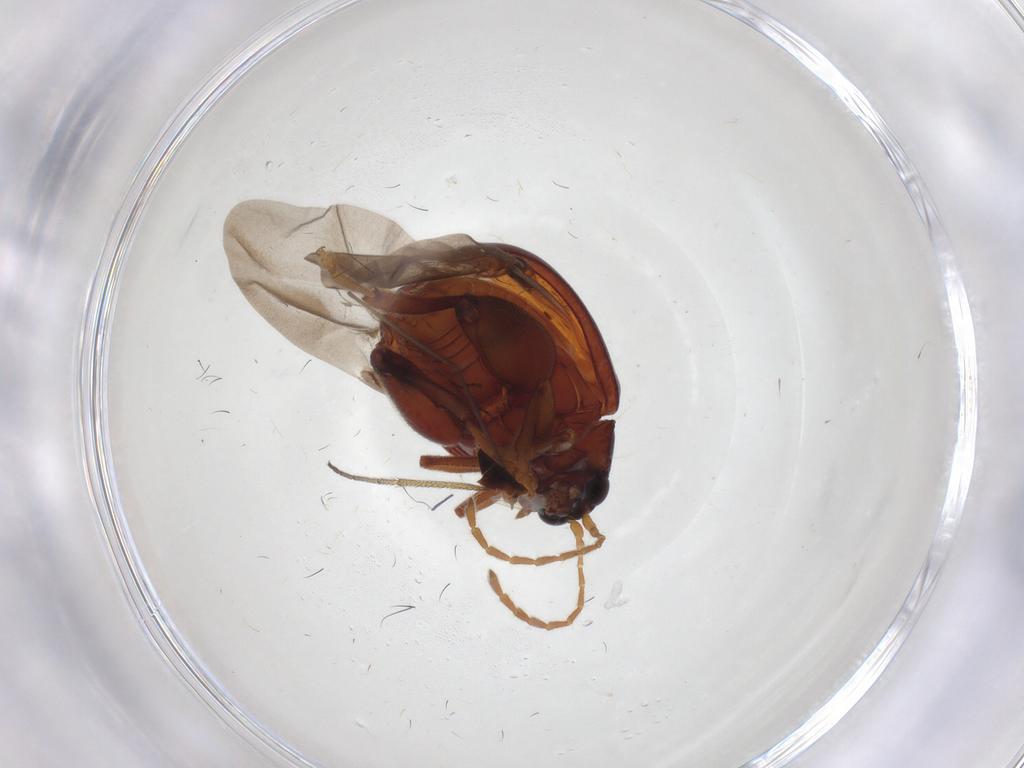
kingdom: Animalia
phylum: Arthropoda
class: Insecta
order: Coleoptera
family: Chrysomelidae
